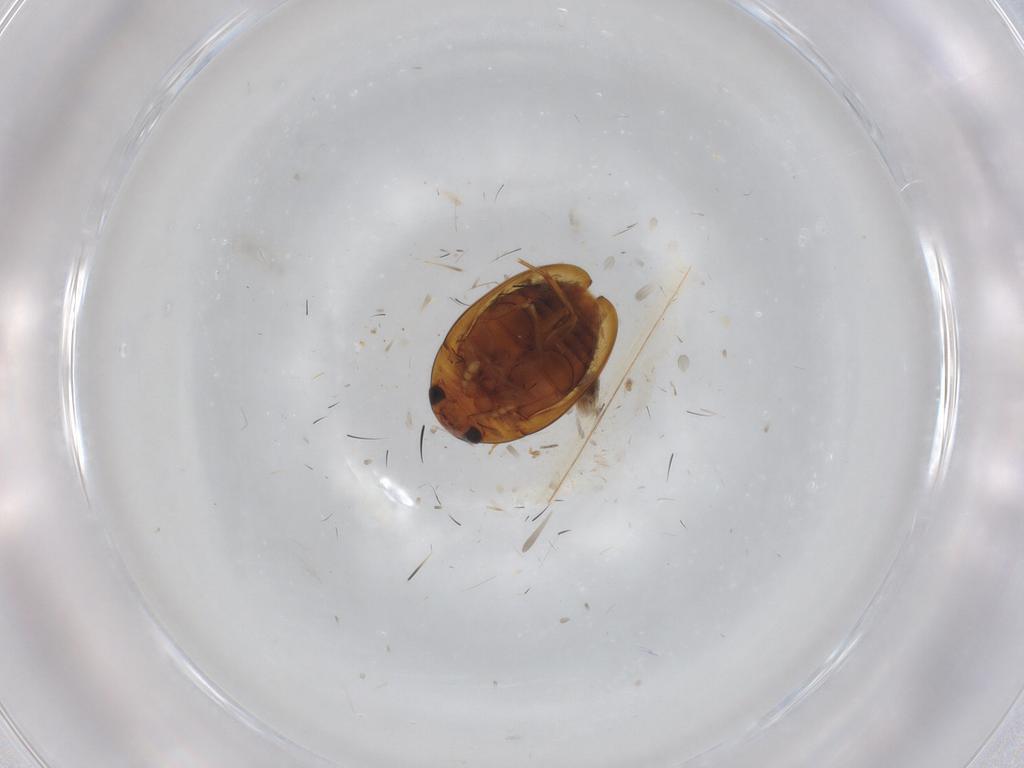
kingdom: Animalia
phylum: Arthropoda
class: Insecta
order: Coleoptera
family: Phalacridae
